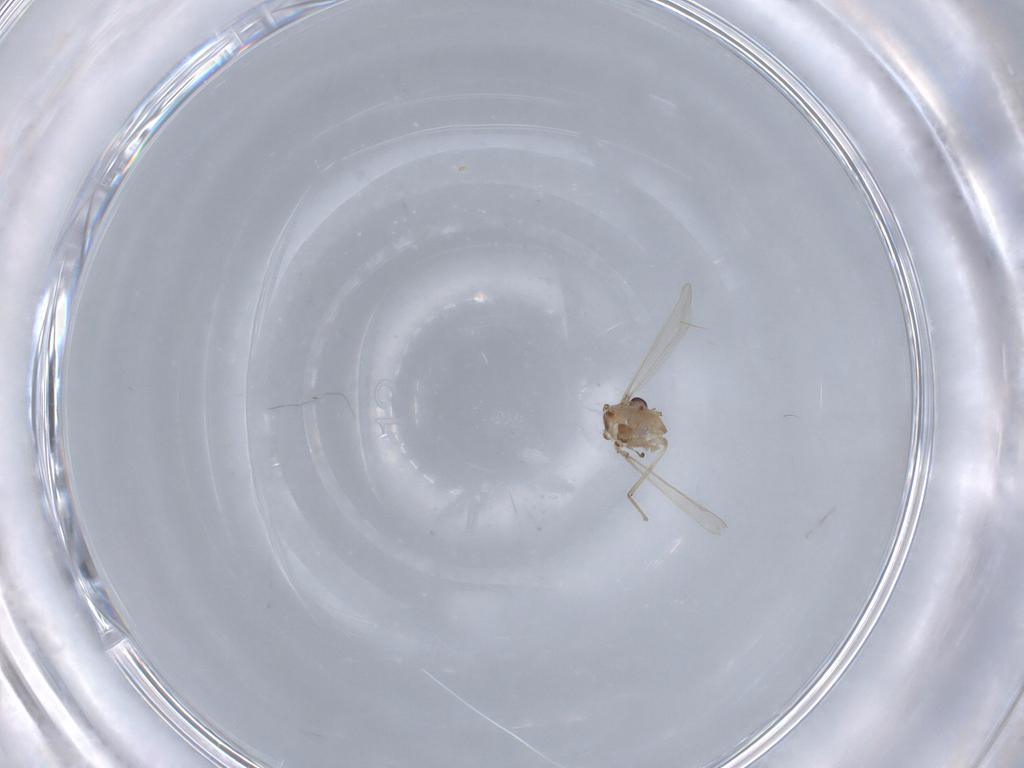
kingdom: Animalia
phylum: Arthropoda
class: Insecta
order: Diptera
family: Chironomidae
